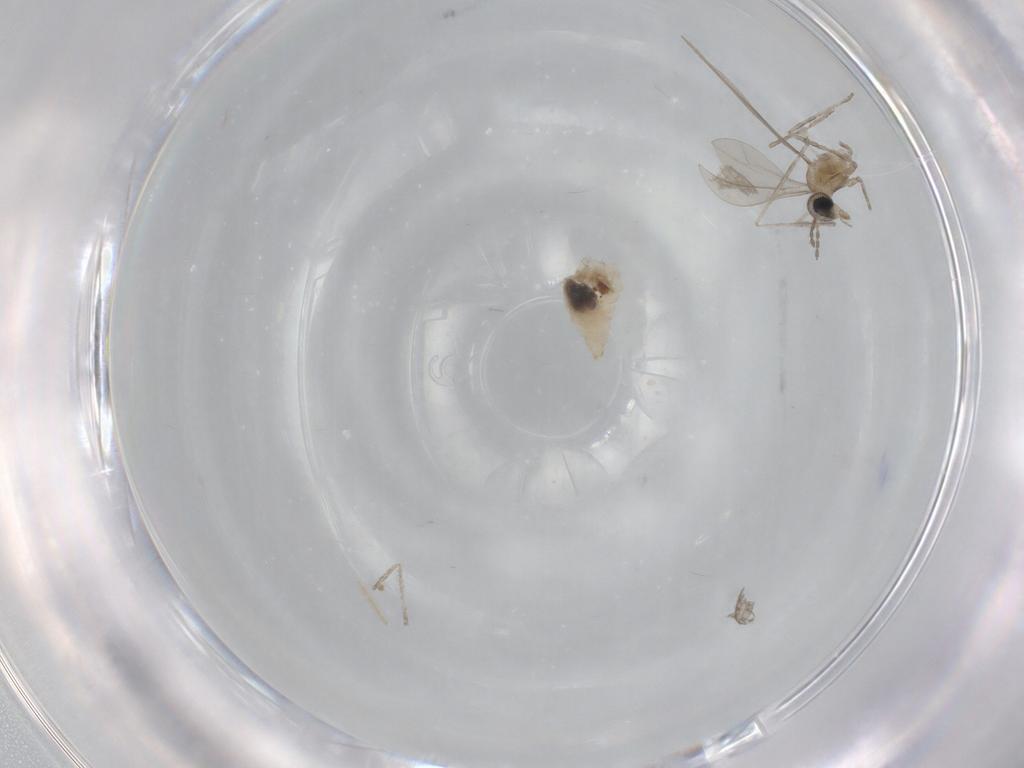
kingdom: Animalia
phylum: Arthropoda
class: Insecta
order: Diptera
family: Cecidomyiidae
